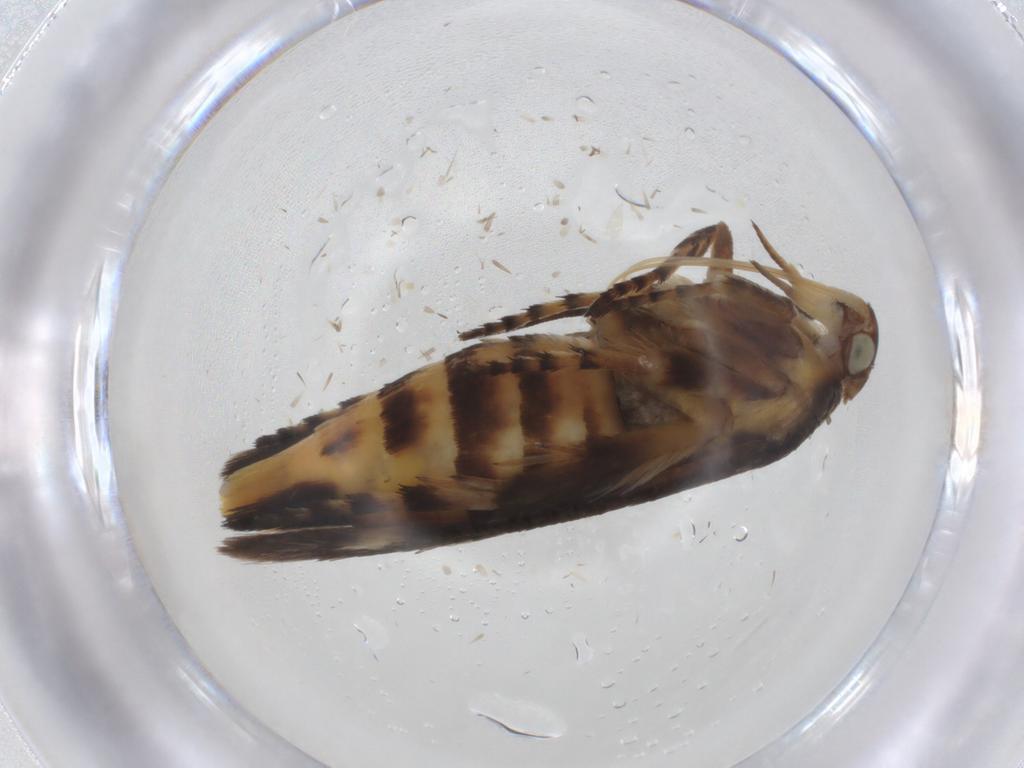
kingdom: Animalia
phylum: Arthropoda
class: Insecta
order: Lepidoptera
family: Scythrididae
